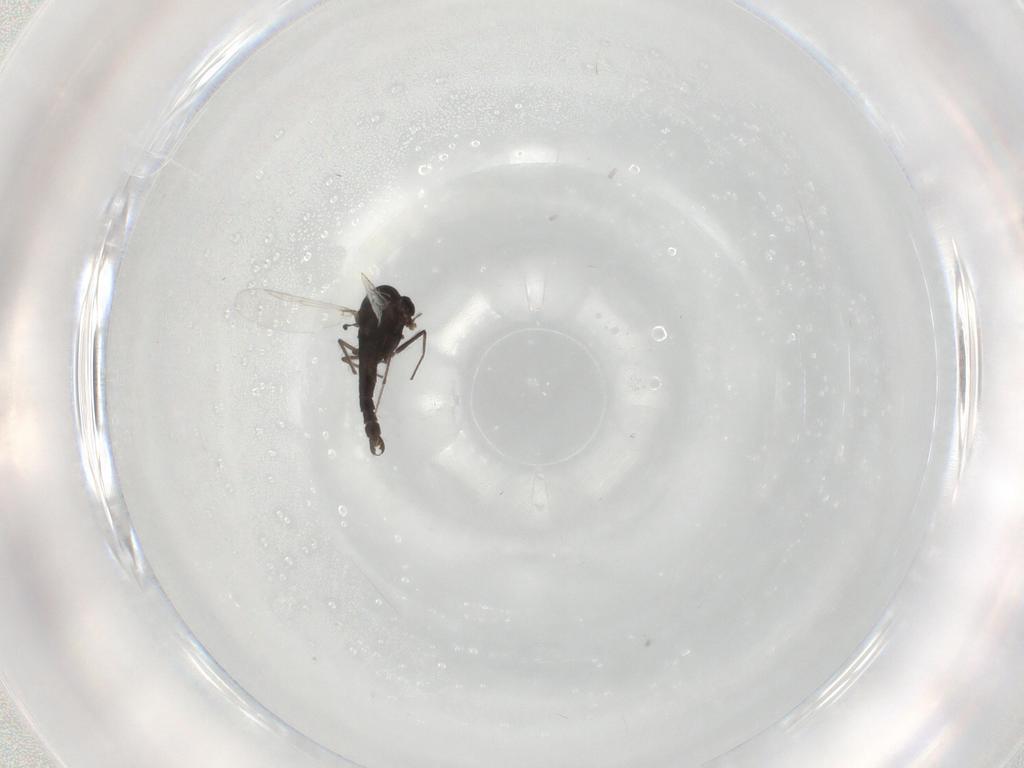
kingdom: Animalia
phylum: Arthropoda
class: Insecta
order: Diptera
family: Chironomidae
